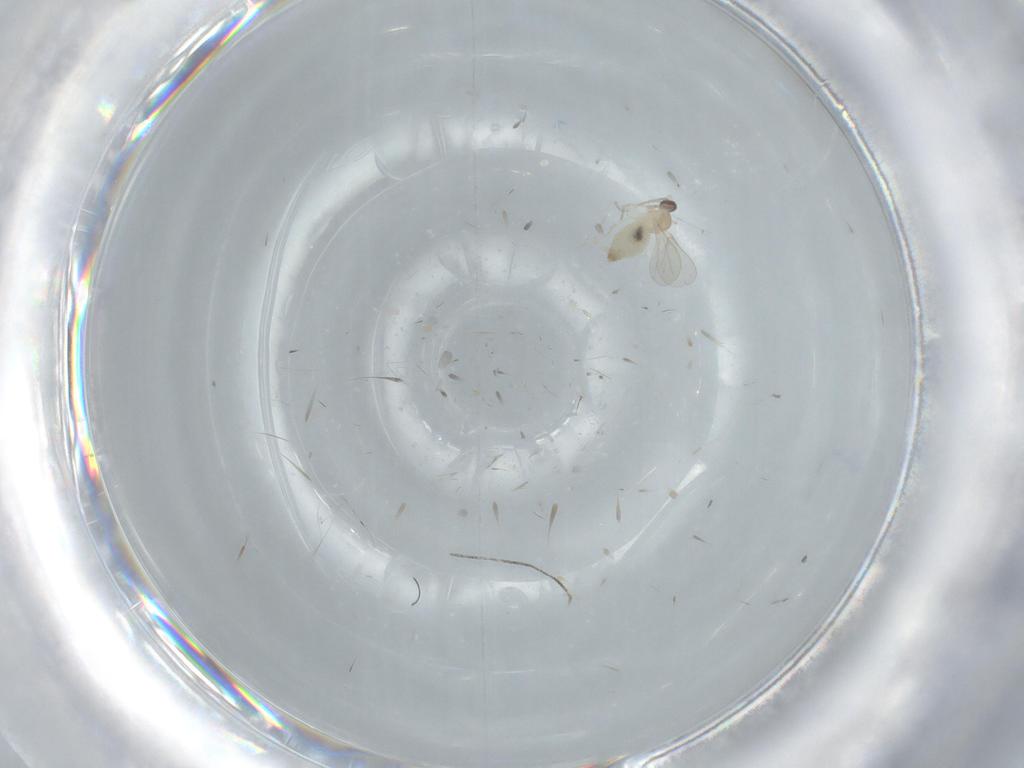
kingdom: Animalia
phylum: Arthropoda
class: Insecta
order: Diptera
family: Cecidomyiidae
